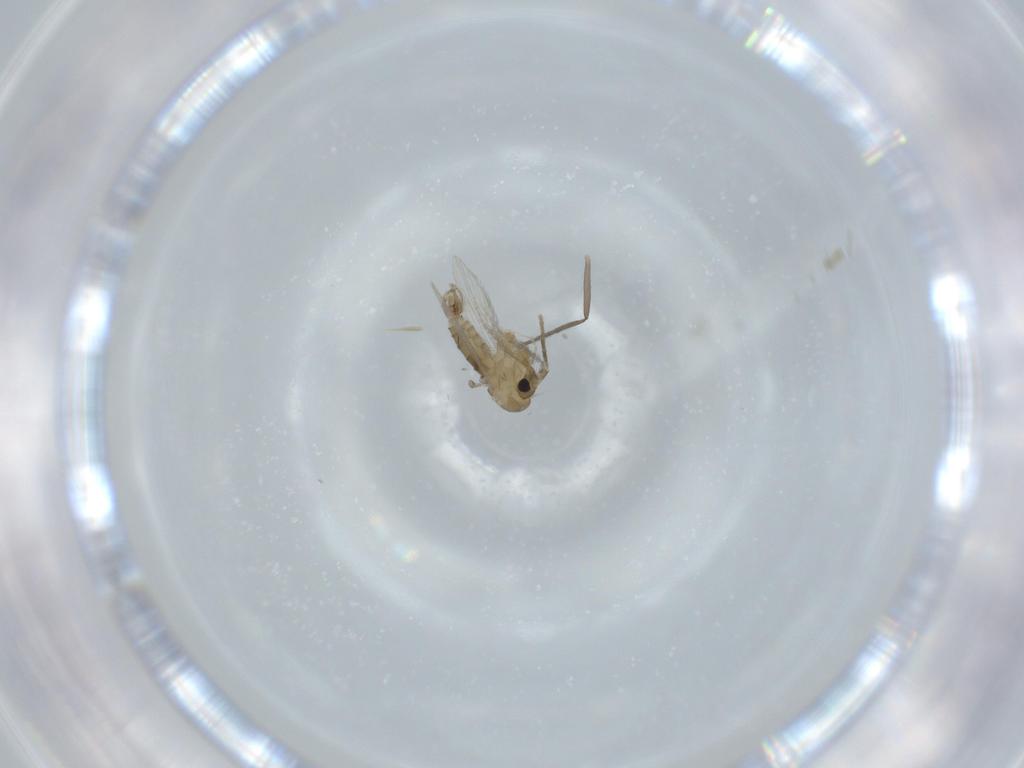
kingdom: Animalia
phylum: Arthropoda
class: Insecta
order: Diptera
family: Psychodidae
